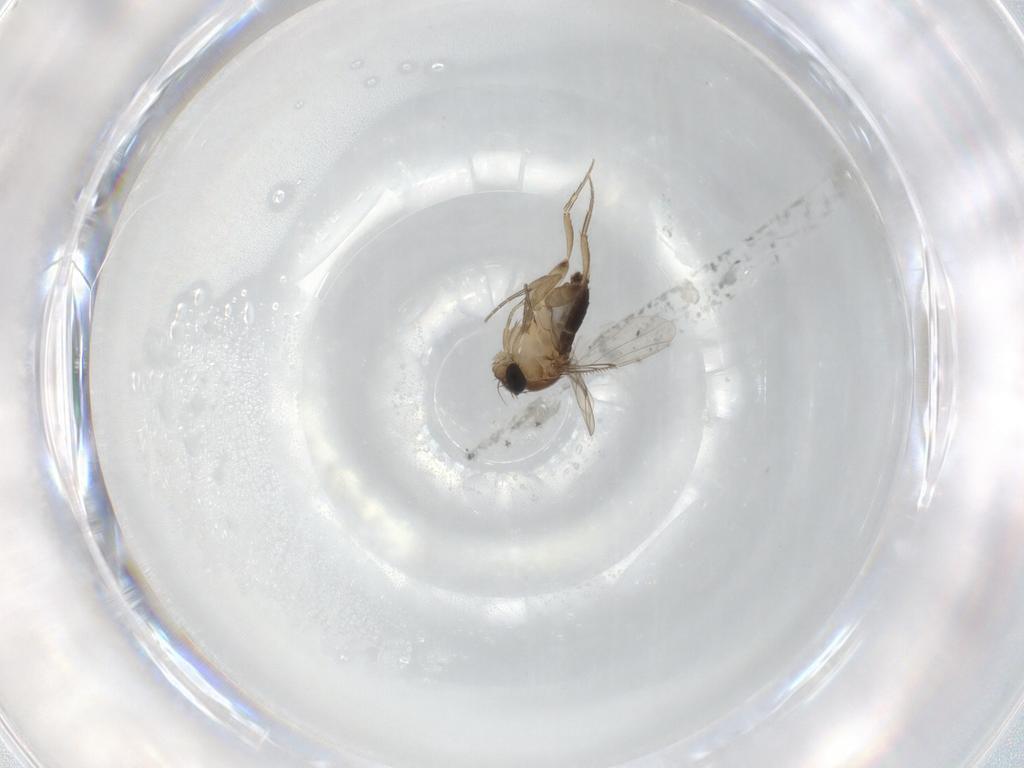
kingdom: Animalia
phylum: Arthropoda
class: Insecta
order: Diptera
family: Phoridae
